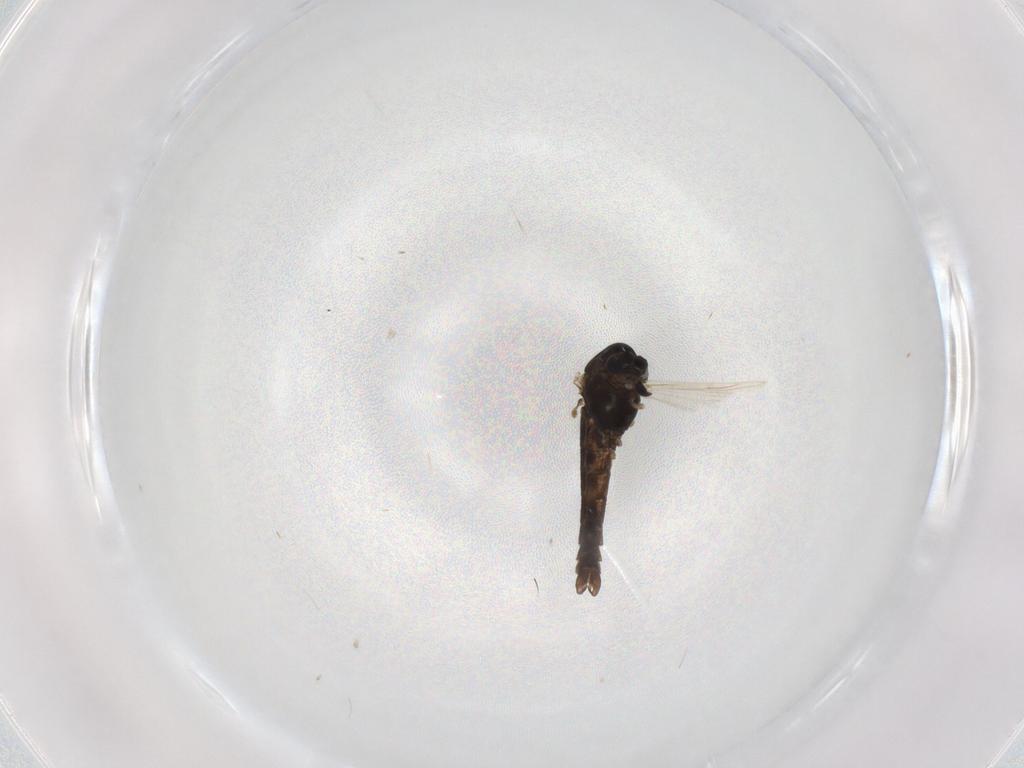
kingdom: Animalia
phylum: Arthropoda
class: Insecta
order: Diptera
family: Chironomidae
